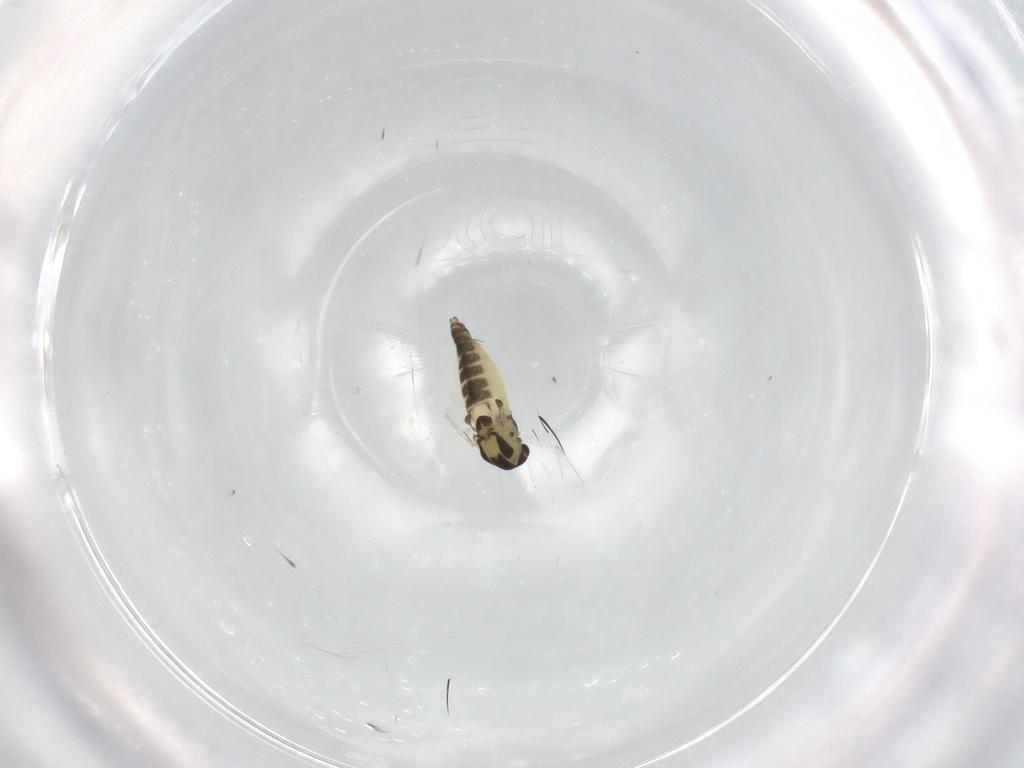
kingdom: Animalia
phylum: Arthropoda
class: Insecta
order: Diptera
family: Chironomidae
